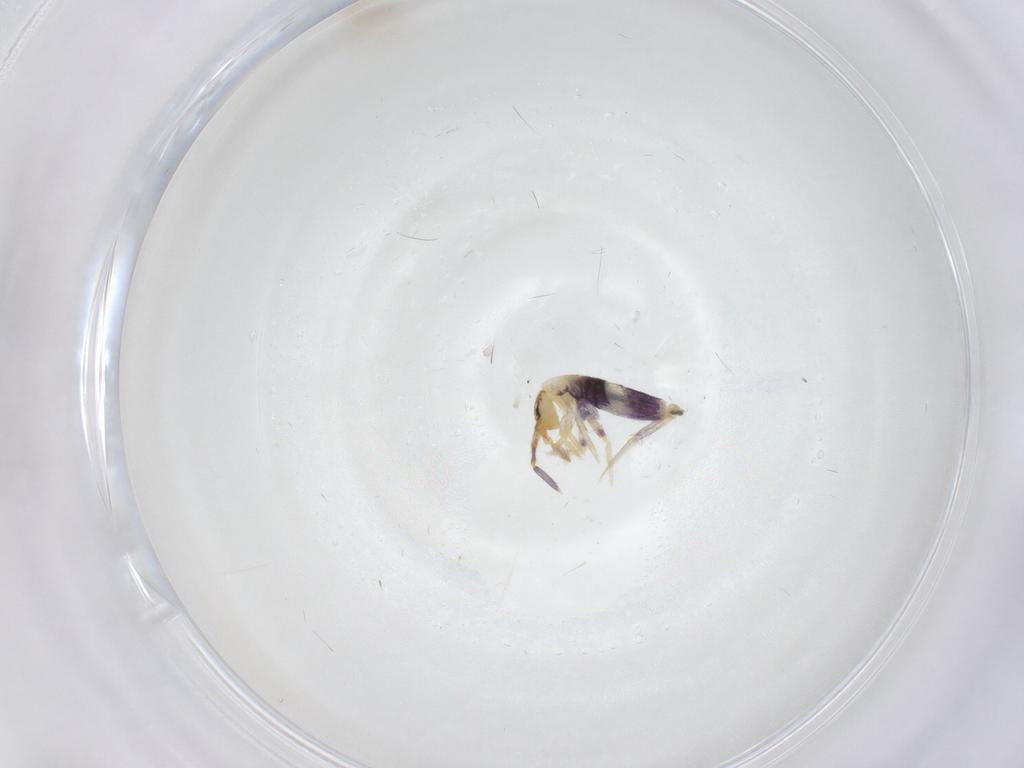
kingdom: Animalia
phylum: Arthropoda
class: Collembola
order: Entomobryomorpha
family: Entomobryidae
